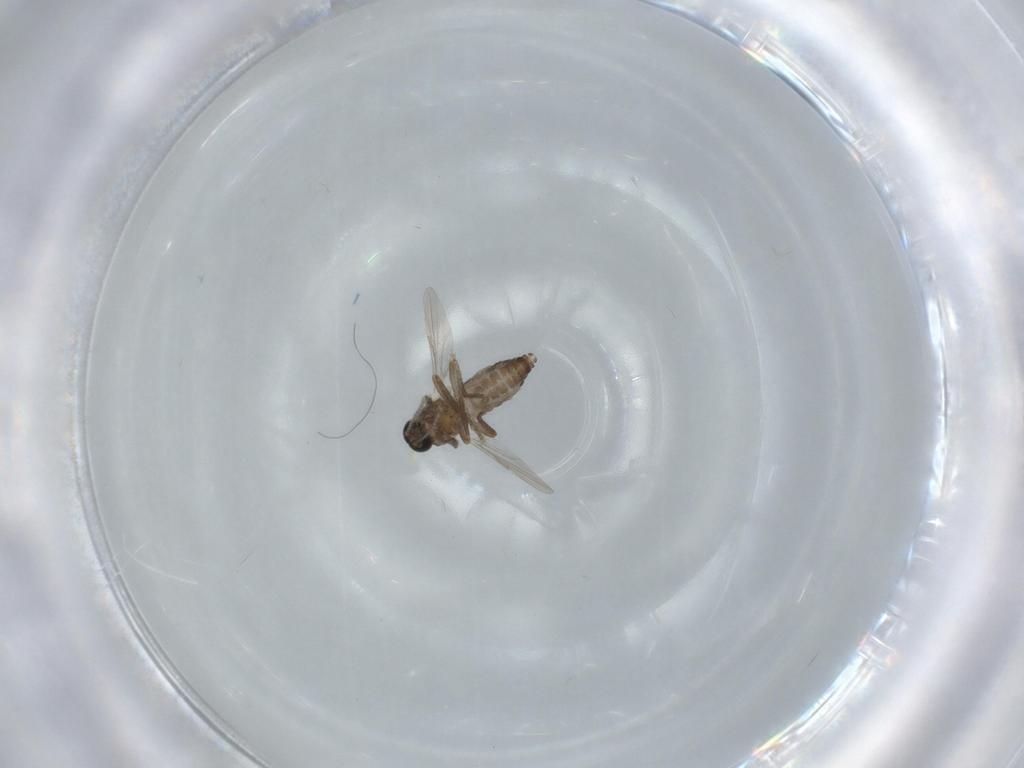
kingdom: Animalia
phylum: Arthropoda
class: Insecta
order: Diptera
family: Ceratopogonidae
